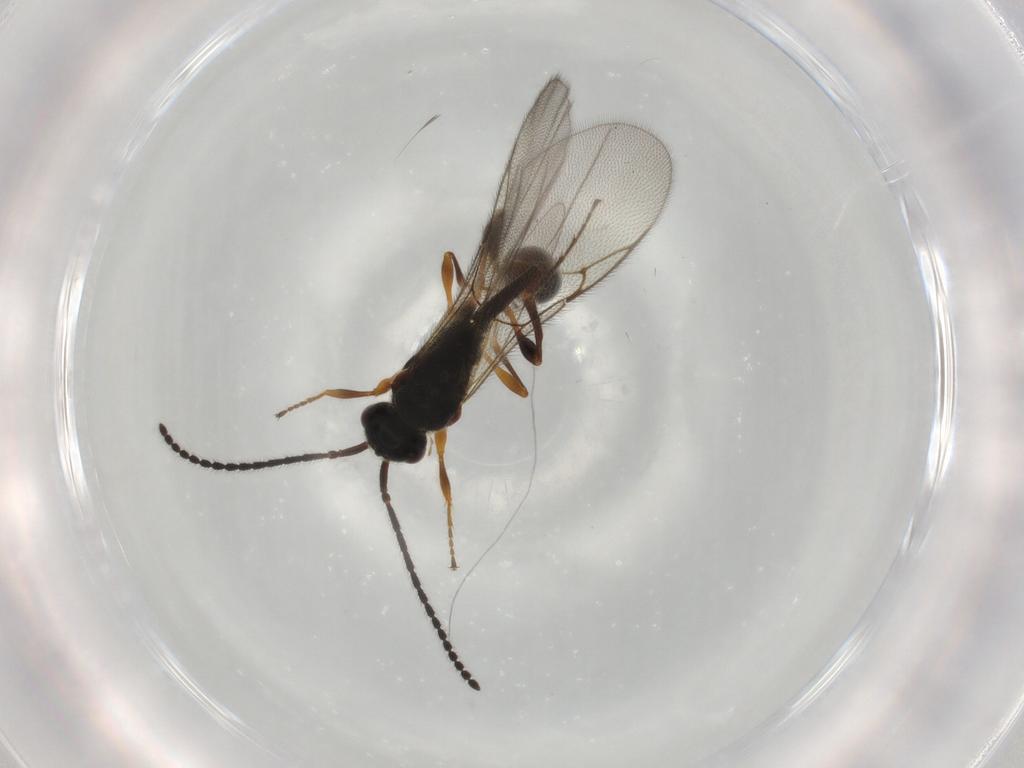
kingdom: Animalia
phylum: Arthropoda
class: Insecta
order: Hymenoptera
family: Diapriidae
